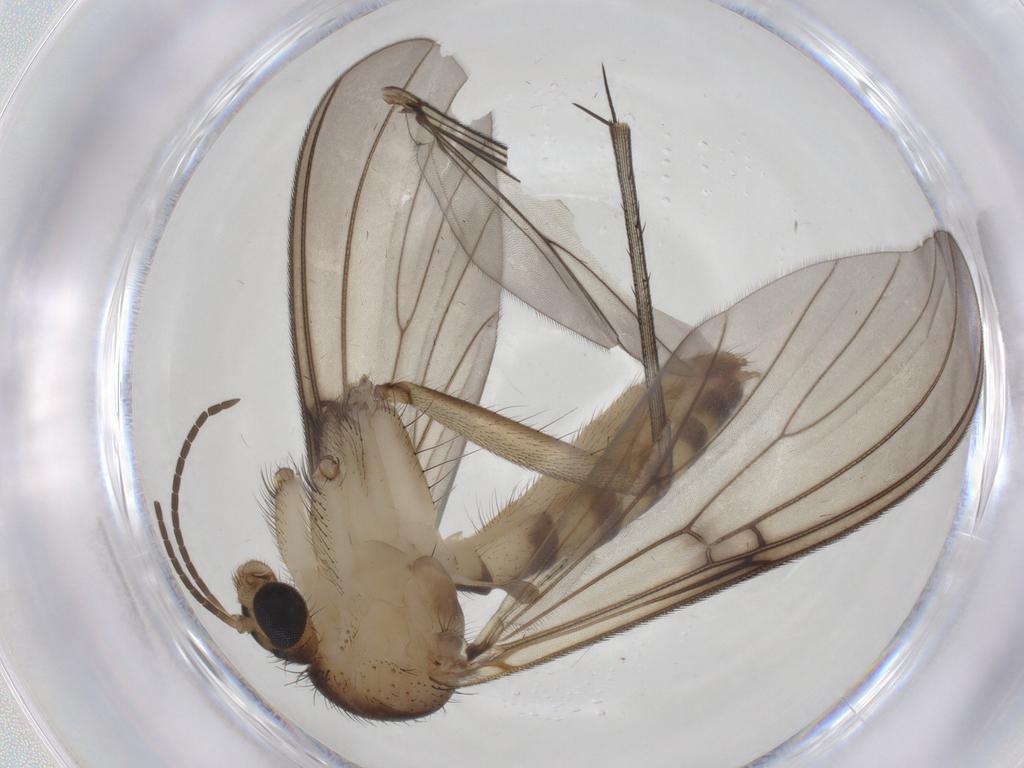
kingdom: Animalia
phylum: Arthropoda
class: Insecta
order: Diptera
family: Mycetophilidae
